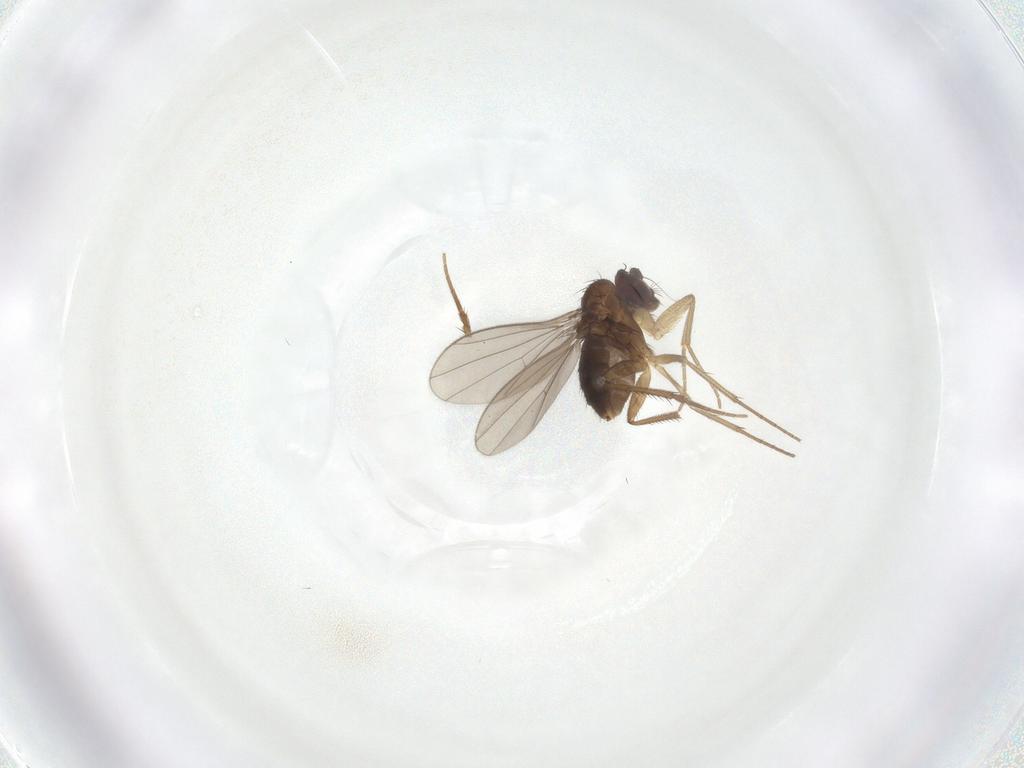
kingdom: Animalia
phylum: Arthropoda
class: Insecta
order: Diptera
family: Dolichopodidae
